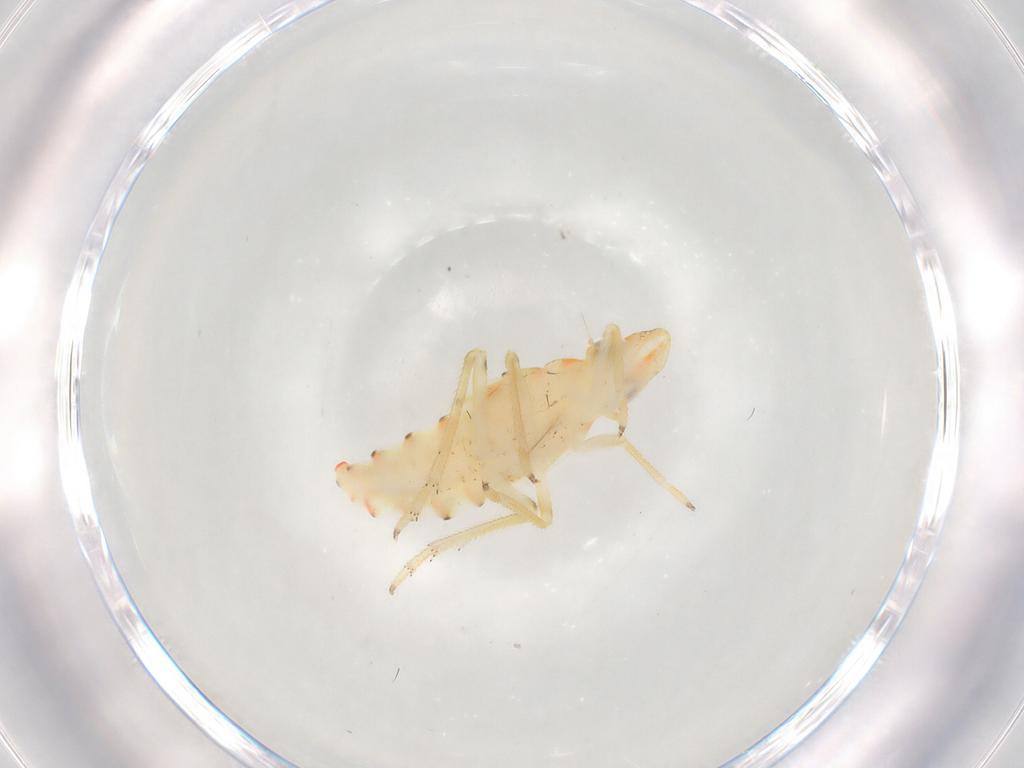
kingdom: Animalia
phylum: Arthropoda
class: Insecta
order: Hemiptera
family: Tropiduchidae
